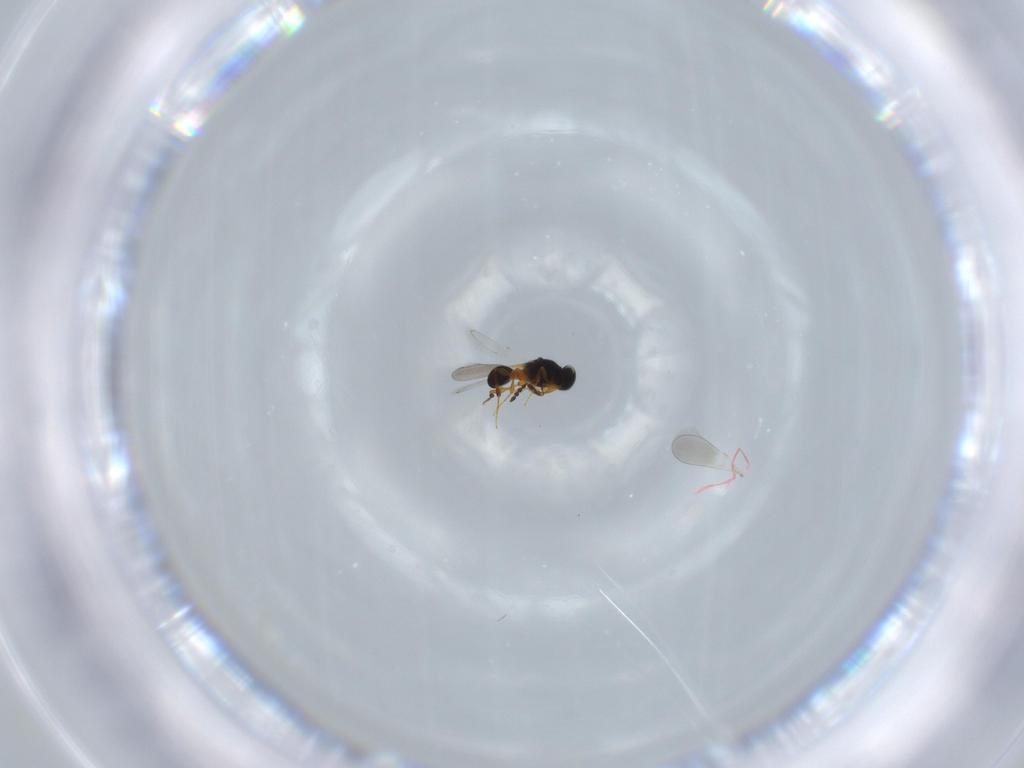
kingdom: Animalia
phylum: Arthropoda
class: Insecta
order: Hymenoptera
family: Platygastridae
